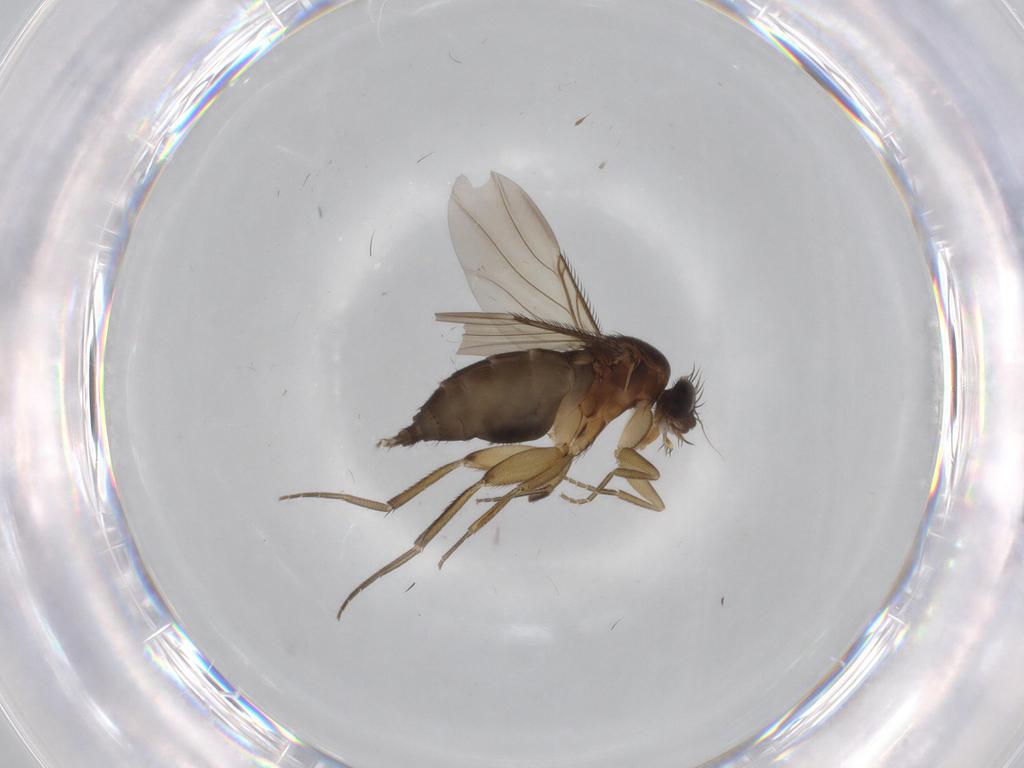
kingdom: Animalia
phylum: Arthropoda
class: Insecta
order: Diptera
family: Phoridae
